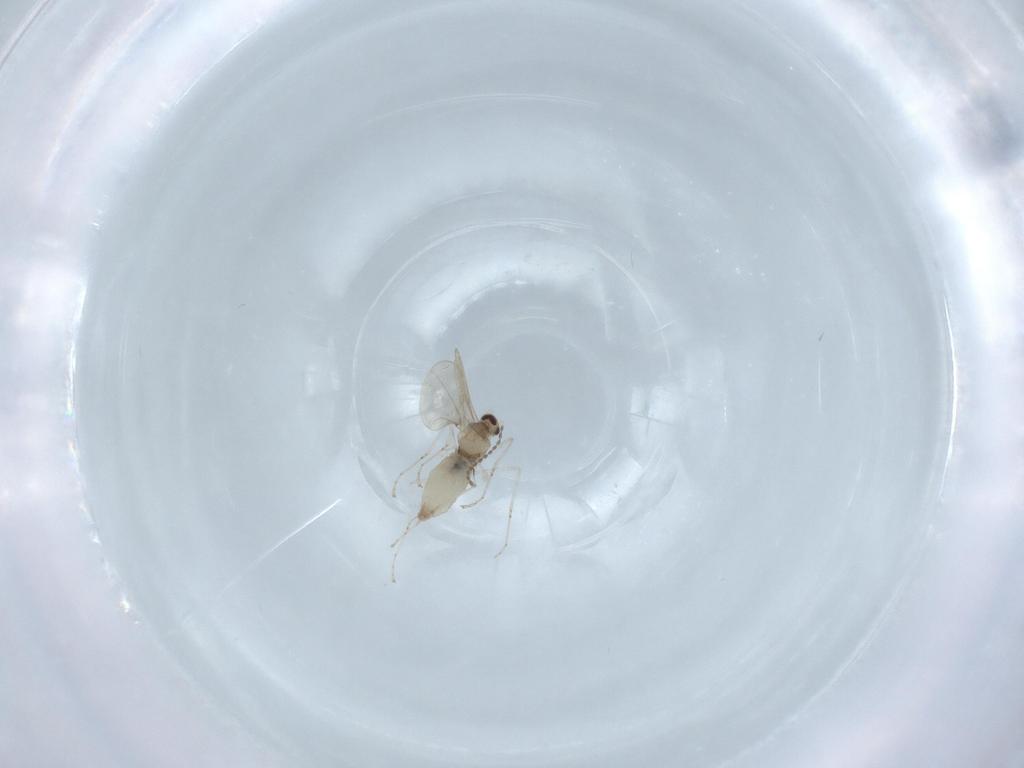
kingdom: Animalia
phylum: Arthropoda
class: Insecta
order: Diptera
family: Cecidomyiidae
